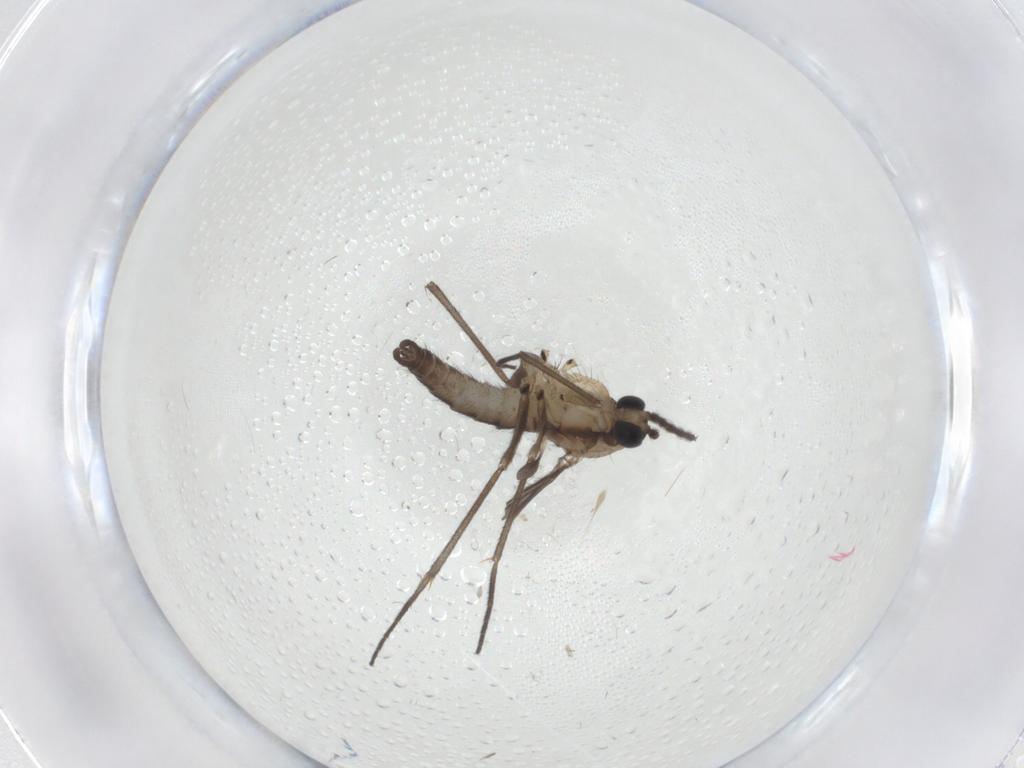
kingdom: Animalia
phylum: Arthropoda
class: Insecta
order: Diptera
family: Sciaridae
